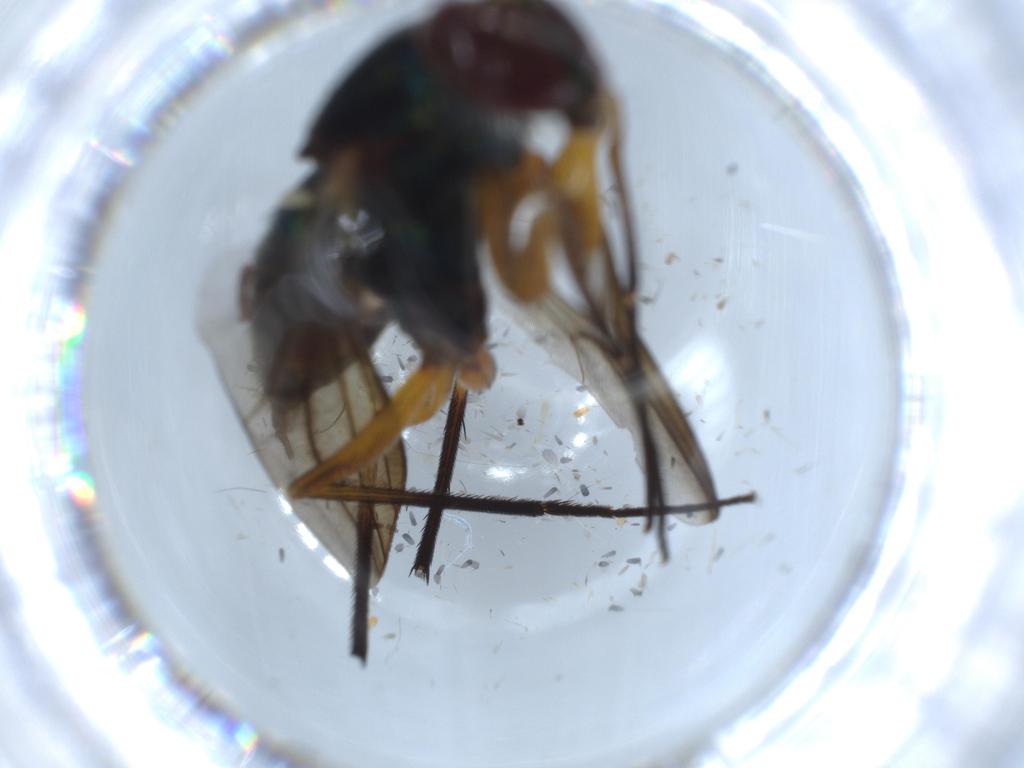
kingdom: Animalia
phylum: Arthropoda
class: Insecta
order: Diptera
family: Dolichopodidae
